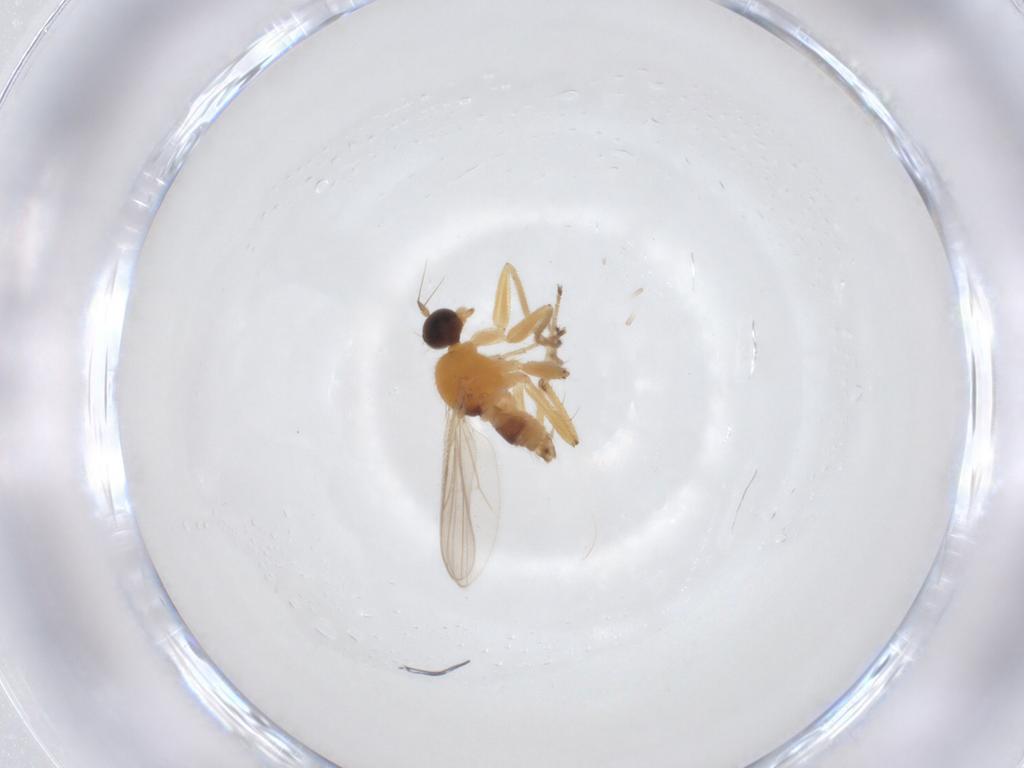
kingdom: Animalia
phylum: Arthropoda
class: Insecta
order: Diptera
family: Cecidomyiidae
